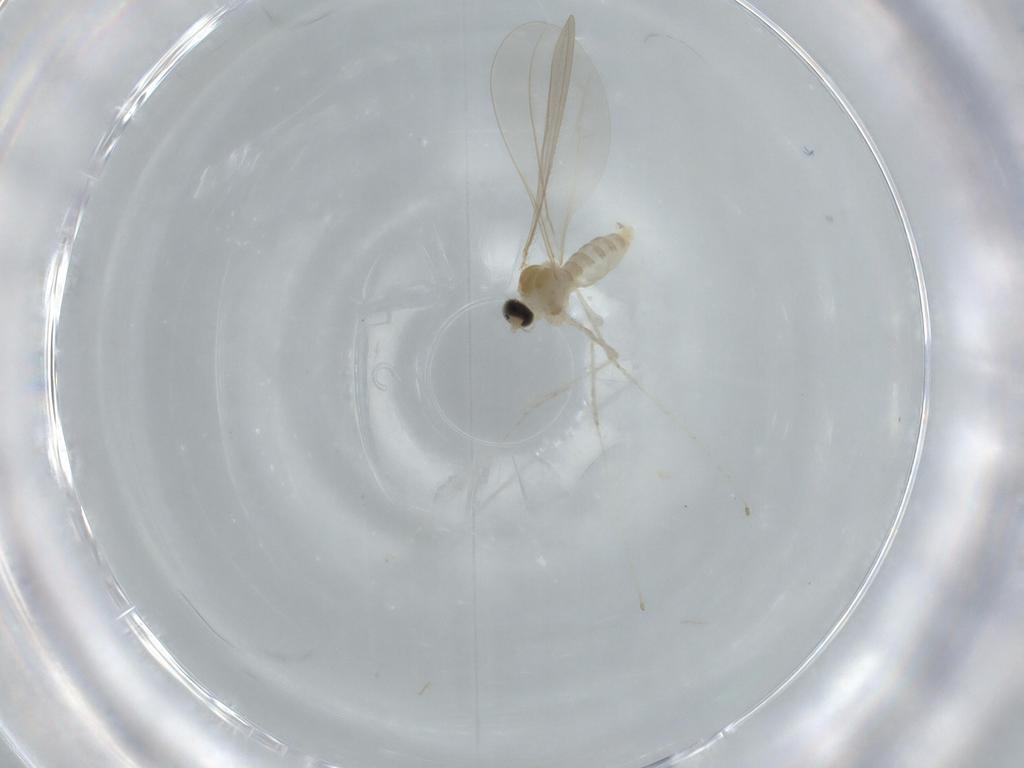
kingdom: Animalia
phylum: Arthropoda
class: Insecta
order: Diptera
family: Cecidomyiidae
